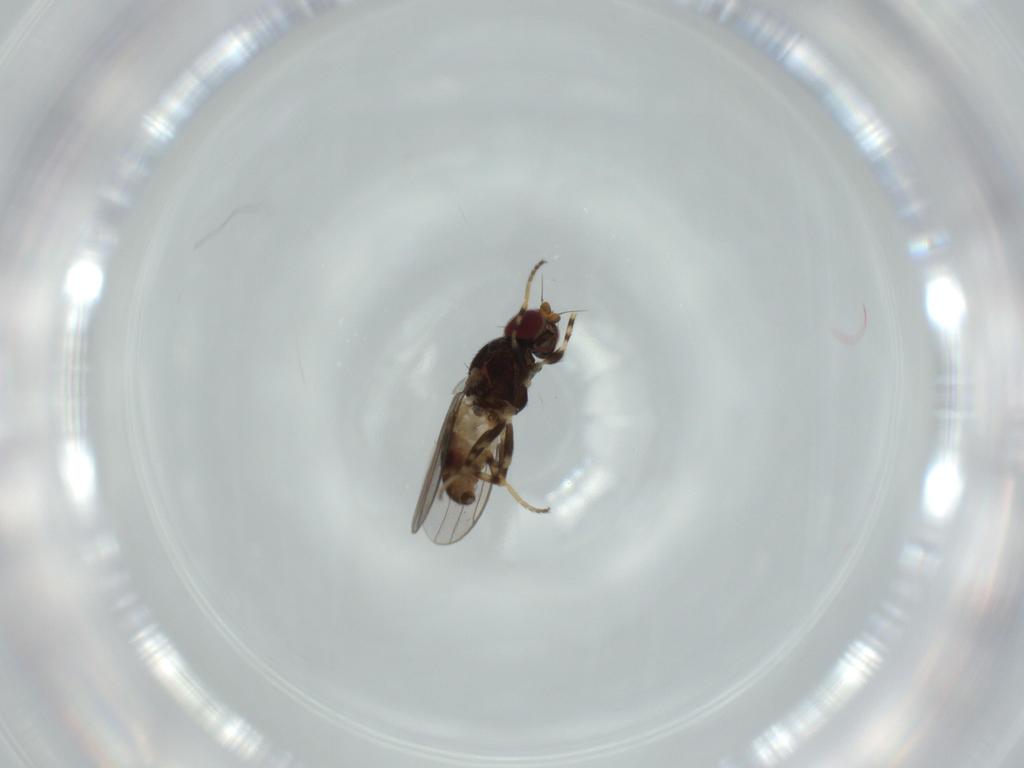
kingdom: Animalia
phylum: Arthropoda
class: Insecta
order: Diptera
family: Chloropidae
